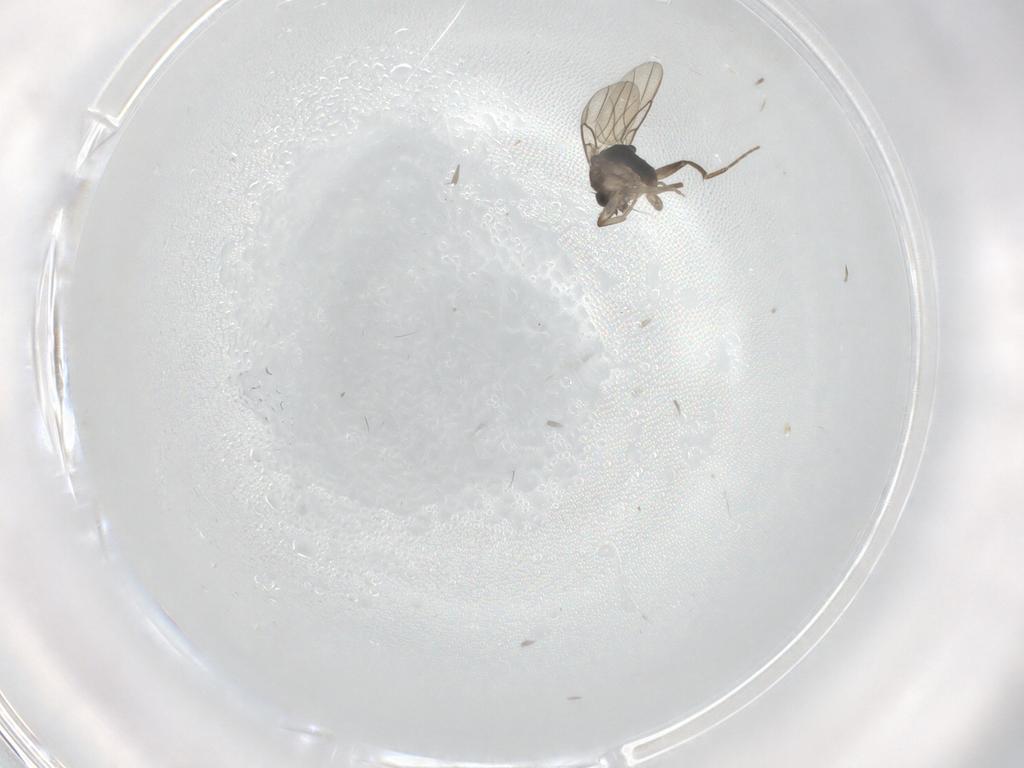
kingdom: Animalia
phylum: Arthropoda
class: Insecta
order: Diptera
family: Cecidomyiidae
